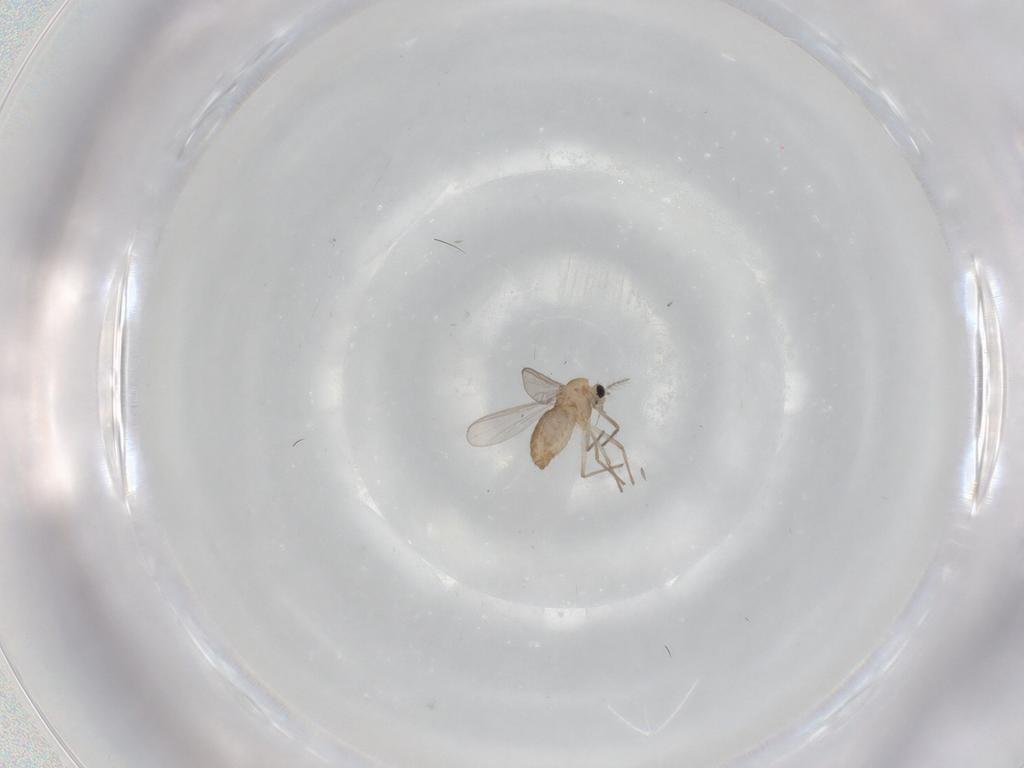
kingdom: Animalia
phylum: Arthropoda
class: Insecta
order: Diptera
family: Chironomidae
